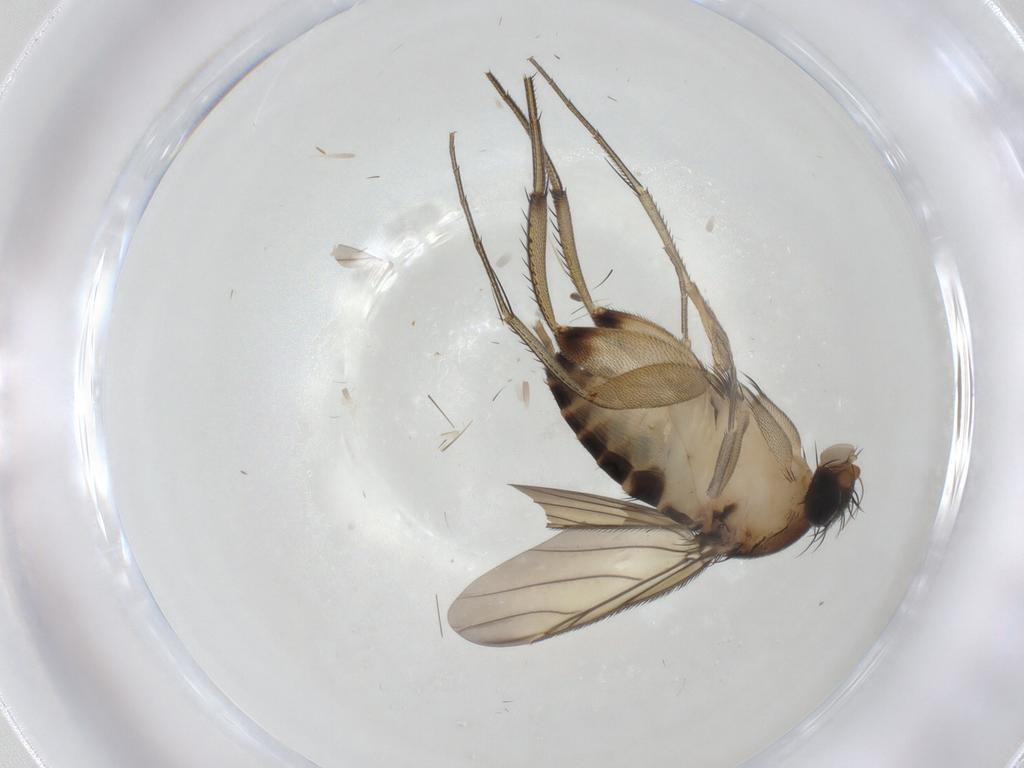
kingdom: Animalia
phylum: Arthropoda
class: Insecta
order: Diptera
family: Phoridae
